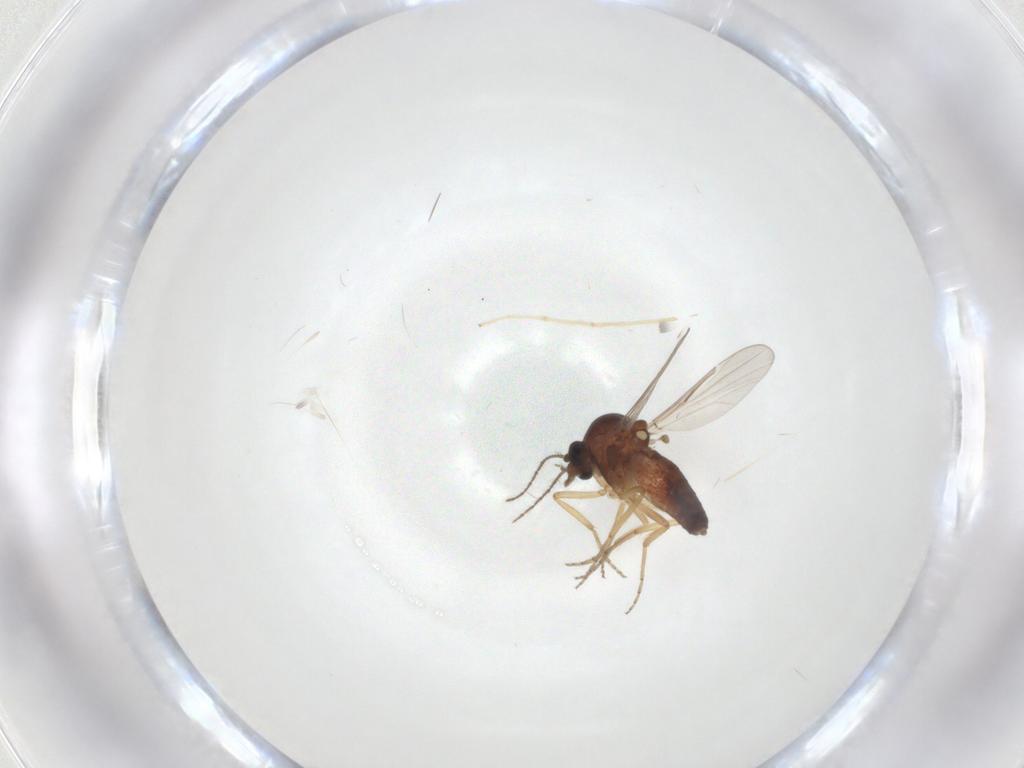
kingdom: Animalia
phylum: Arthropoda
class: Insecta
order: Diptera
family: Ceratopogonidae
